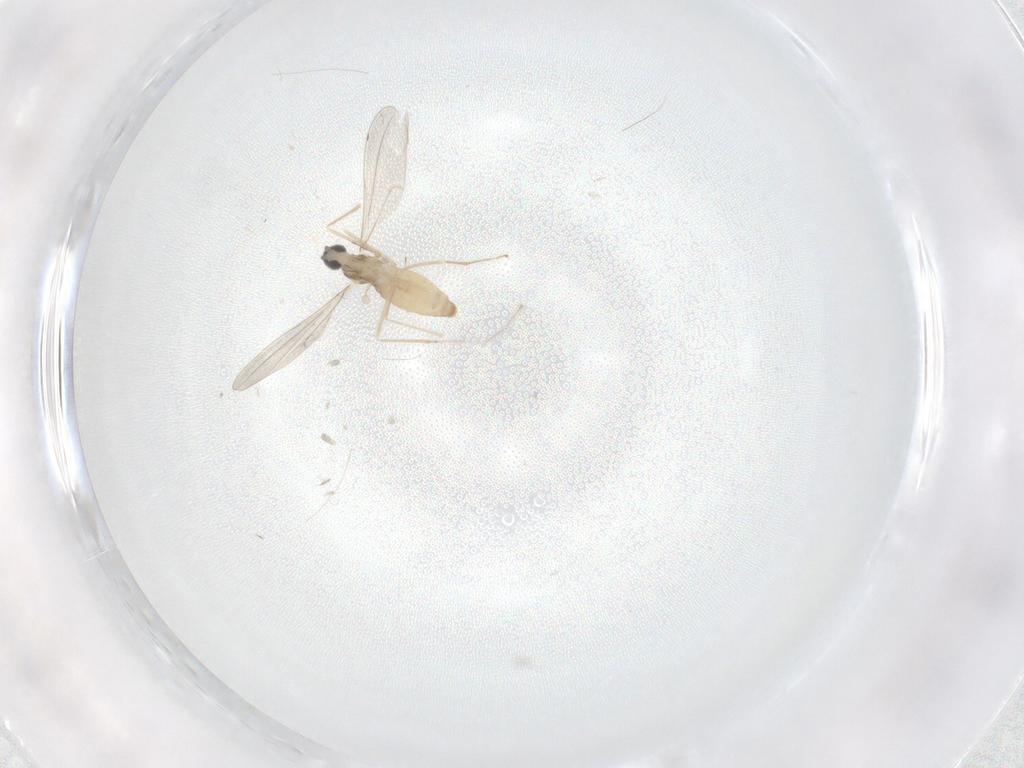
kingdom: Animalia
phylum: Arthropoda
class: Insecta
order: Diptera
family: Cecidomyiidae
